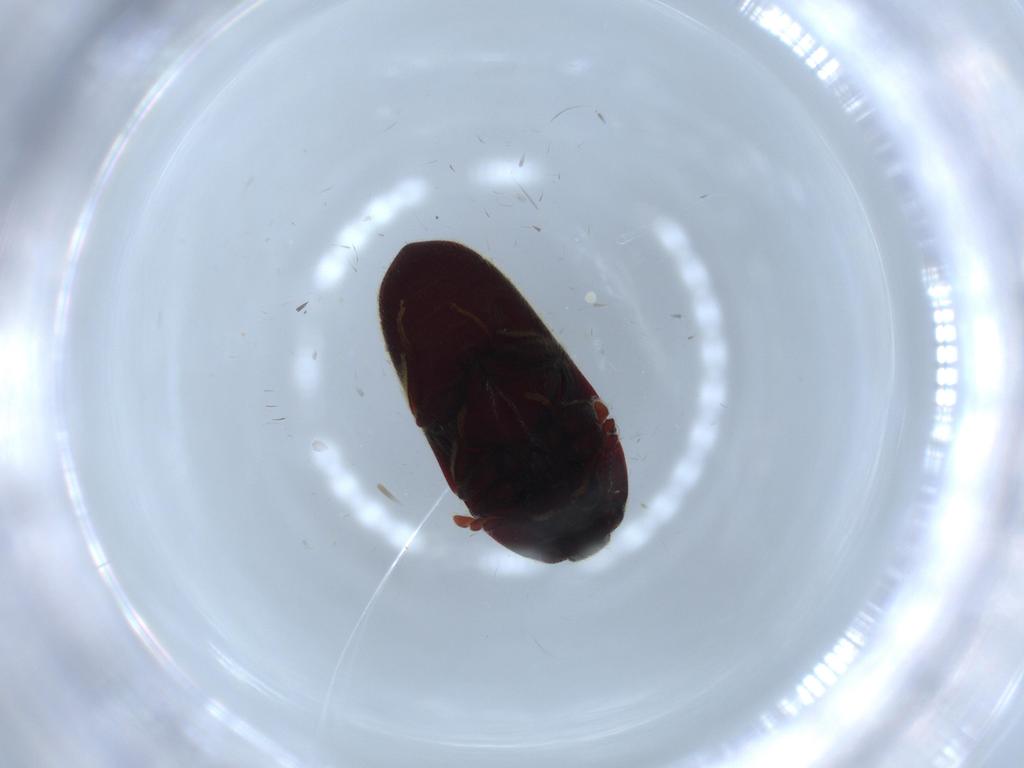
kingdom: Animalia
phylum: Arthropoda
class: Insecta
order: Coleoptera
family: Throscidae
